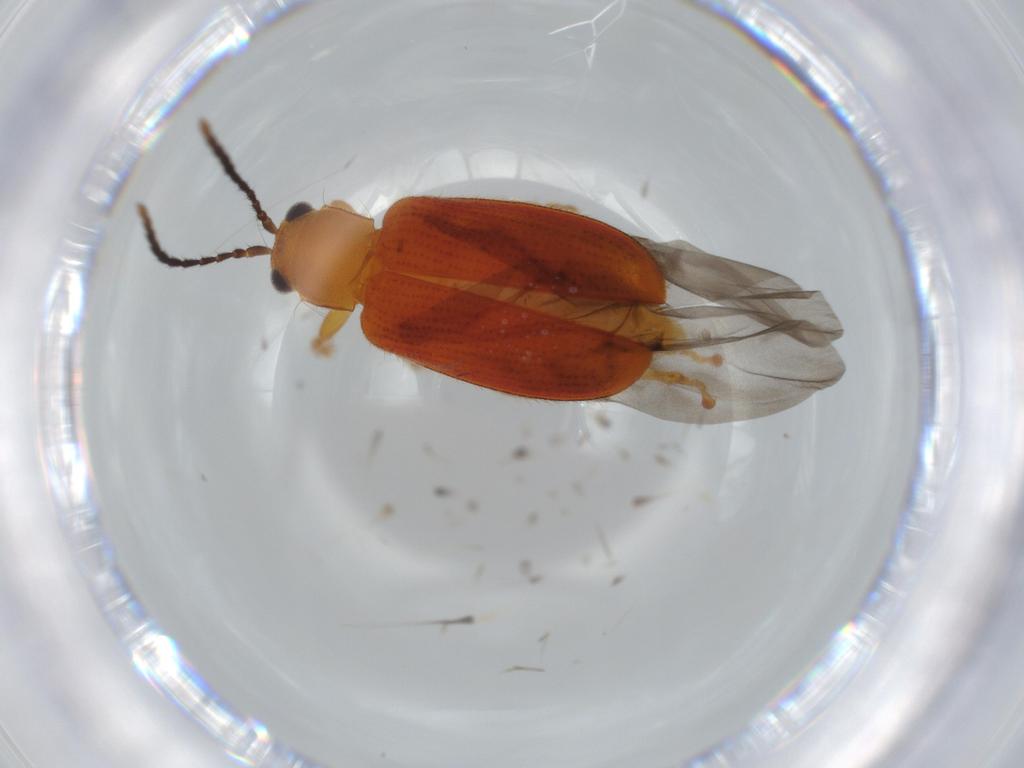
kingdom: Animalia
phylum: Arthropoda
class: Insecta
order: Coleoptera
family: Chrysomelidae
